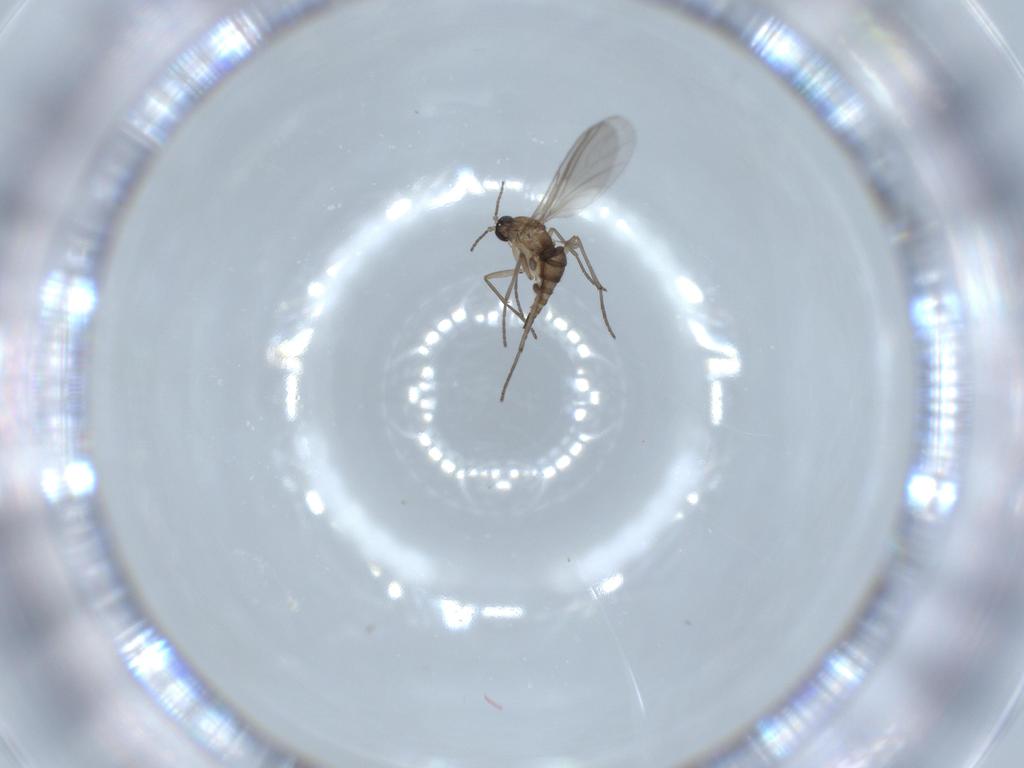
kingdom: Animalia
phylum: Arthropoda
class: Insecta
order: Diptera
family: Sciaridae
